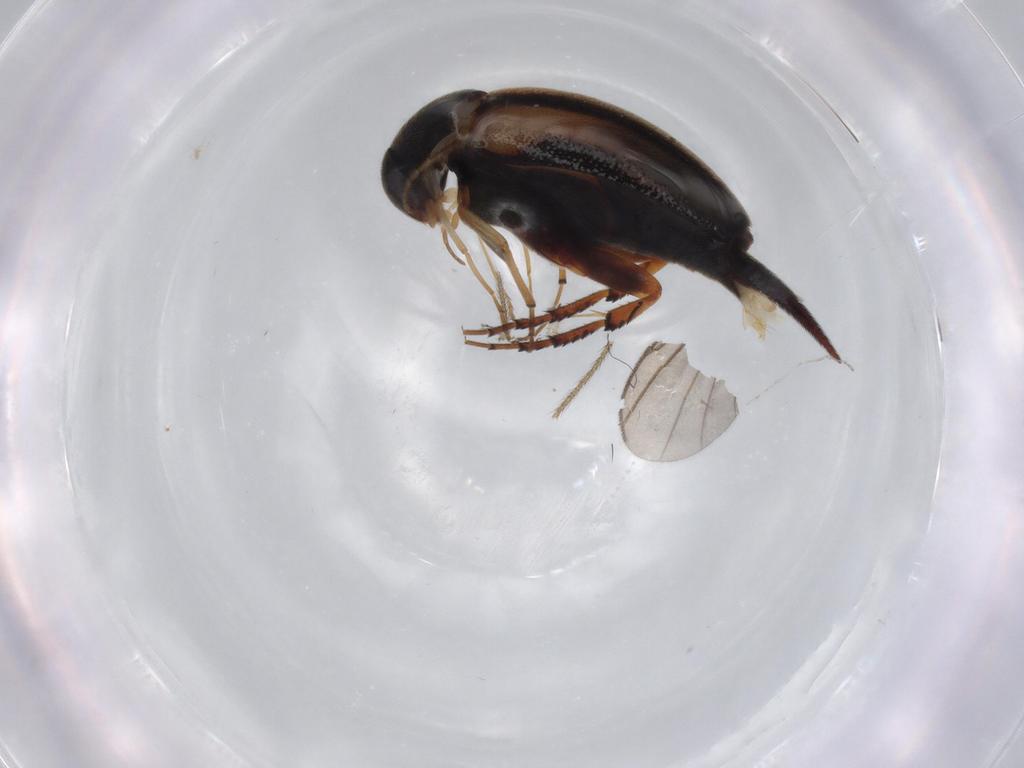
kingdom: Animalia
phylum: Arthropoda
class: Insecta
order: Coleoptera
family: Mordellidae
